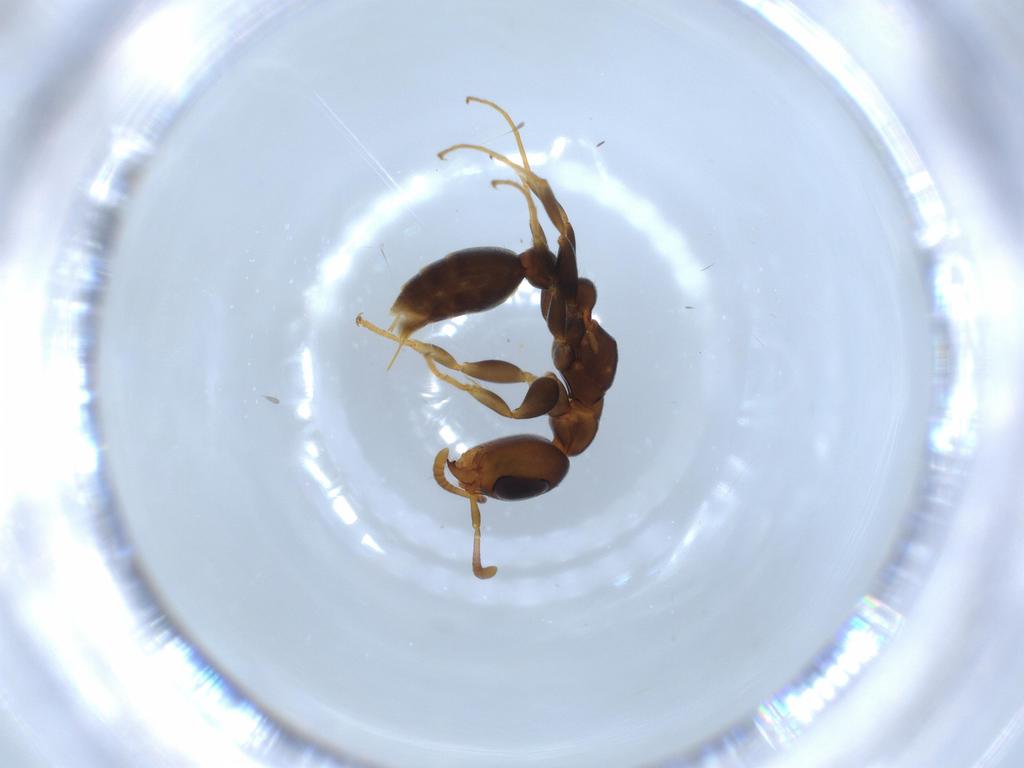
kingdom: Animalia
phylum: Arthropoda
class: Insecta
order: Hymenoptera
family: Formicidae
